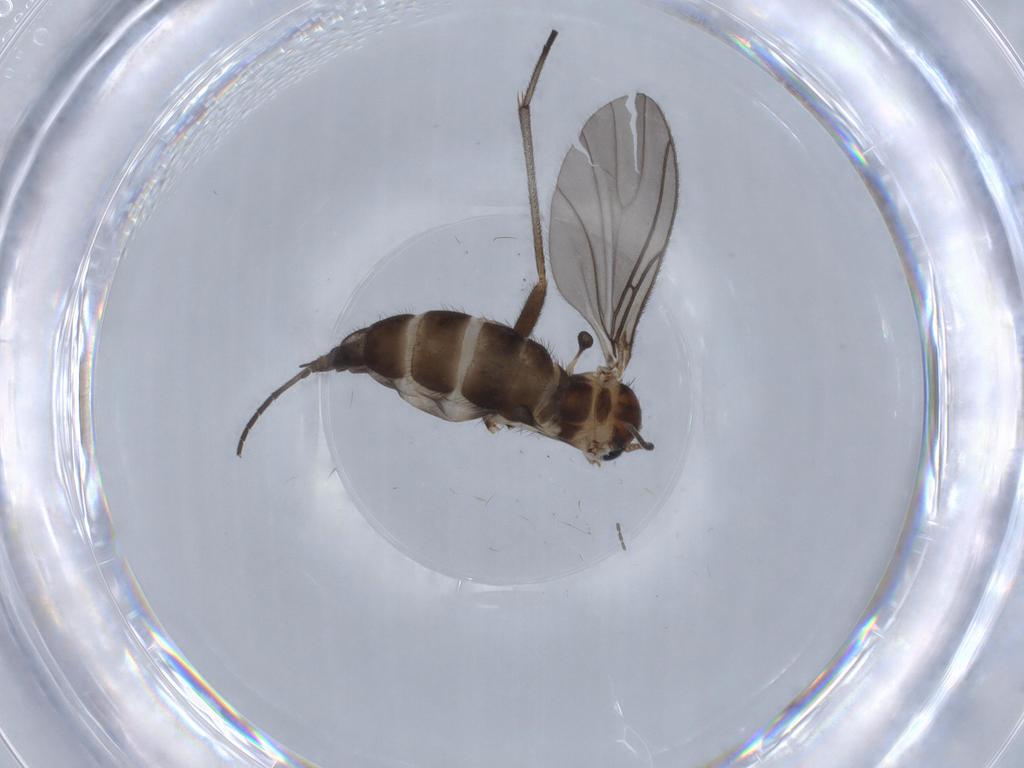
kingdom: Animalia
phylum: Arthropoda
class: Insecta
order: Diptera
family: Sciaridae
